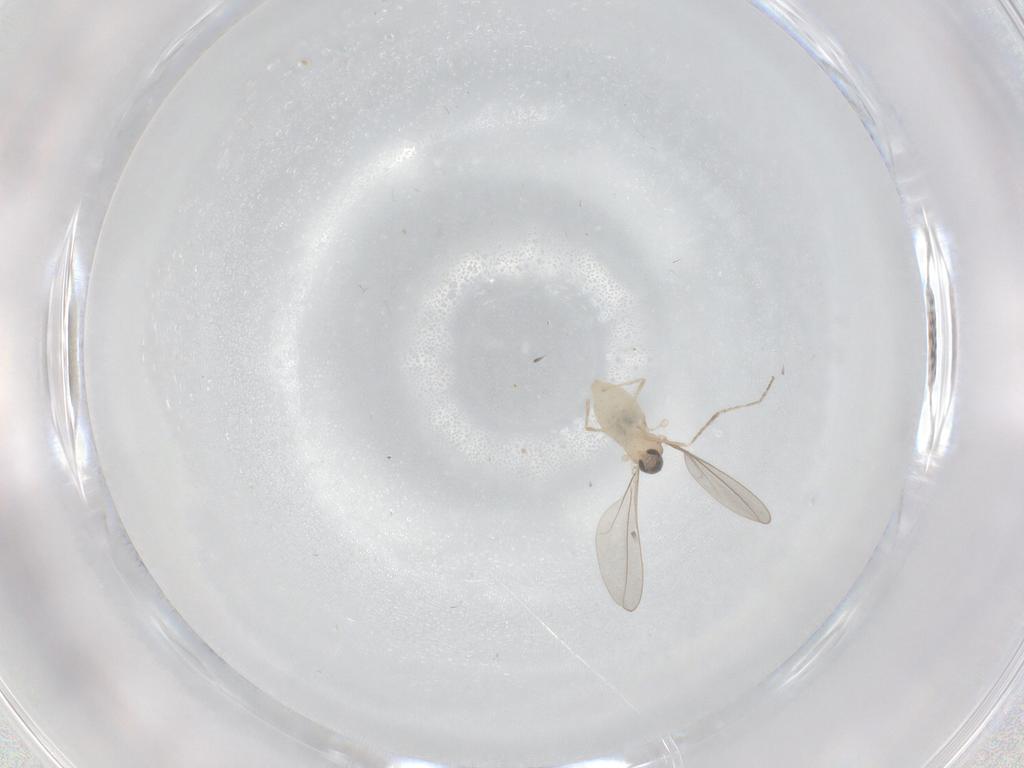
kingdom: Animalia
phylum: Arthropoda
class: Insecta
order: Diptera
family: Cecidomyiidae
